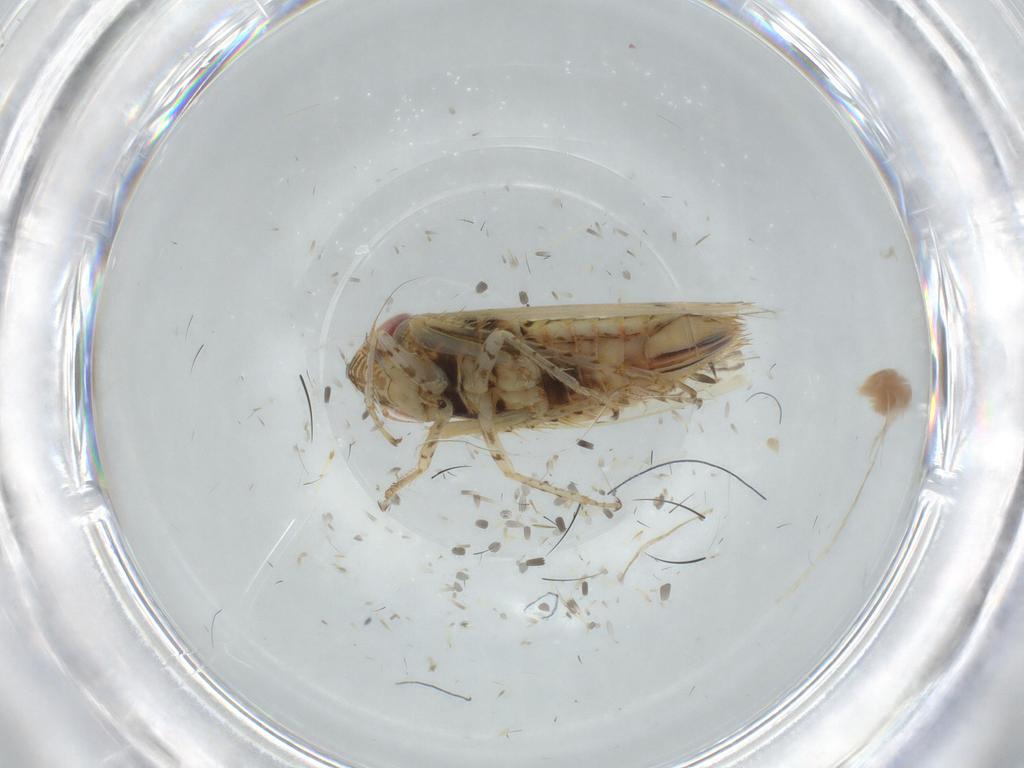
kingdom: Animalia
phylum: Arthropoda
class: Insecta
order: Hemiptera
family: Cicadellidae
